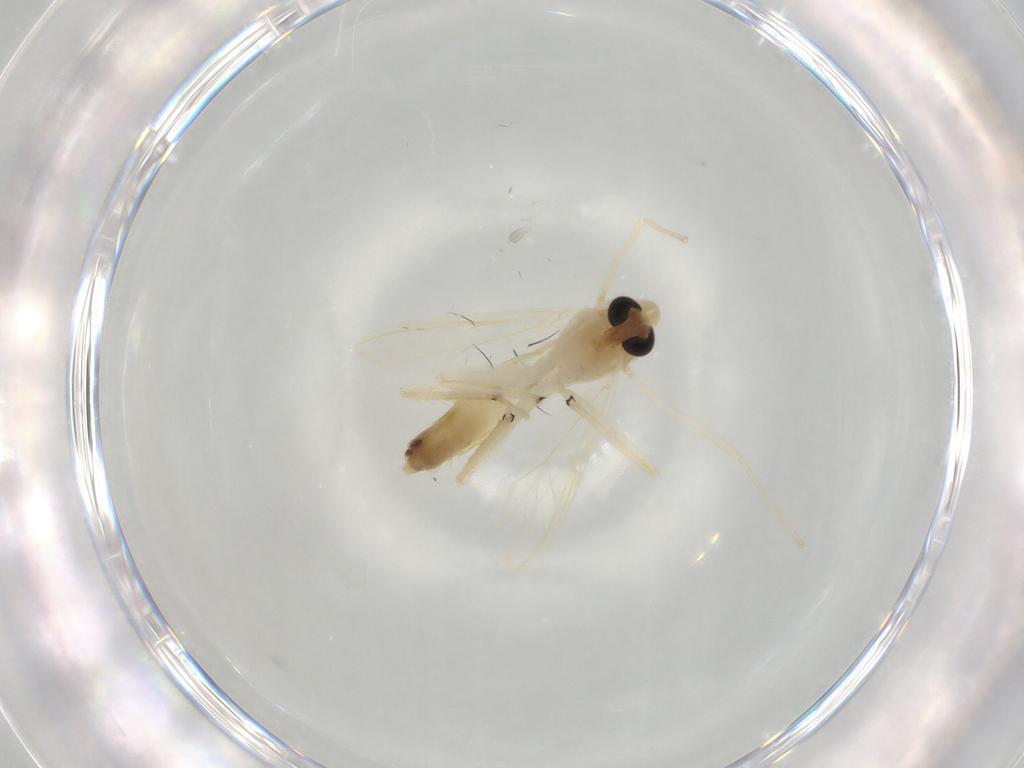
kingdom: Animalia
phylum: Arthropoda
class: Insecta
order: Diptera
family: Chironomidae
